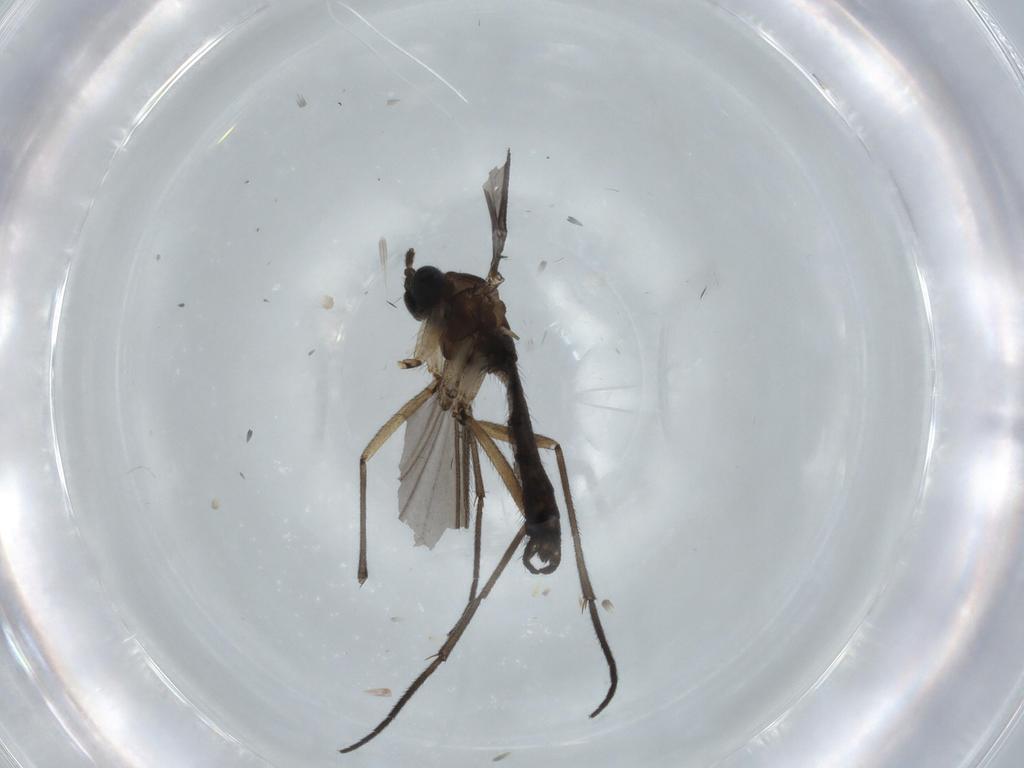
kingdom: Animalia
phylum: Arthropoda
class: Insecta
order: Diptera
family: Sciaridae
